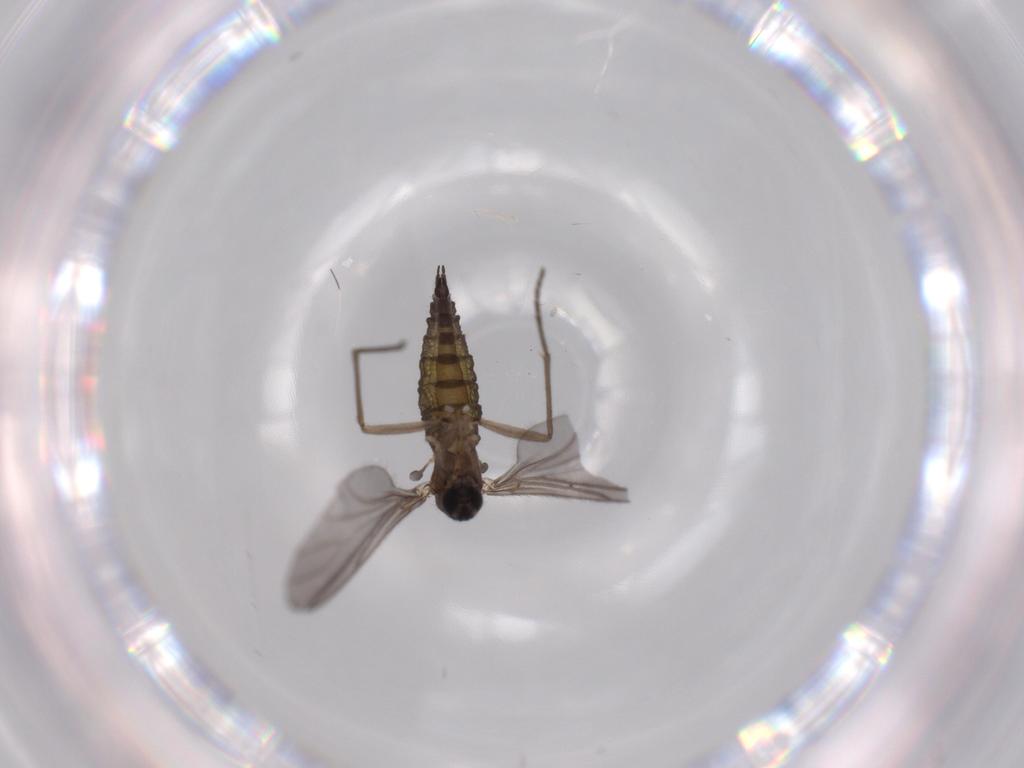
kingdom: Animalia
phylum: Arthropoda
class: Insecta
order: Diptera
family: Sciaridae
